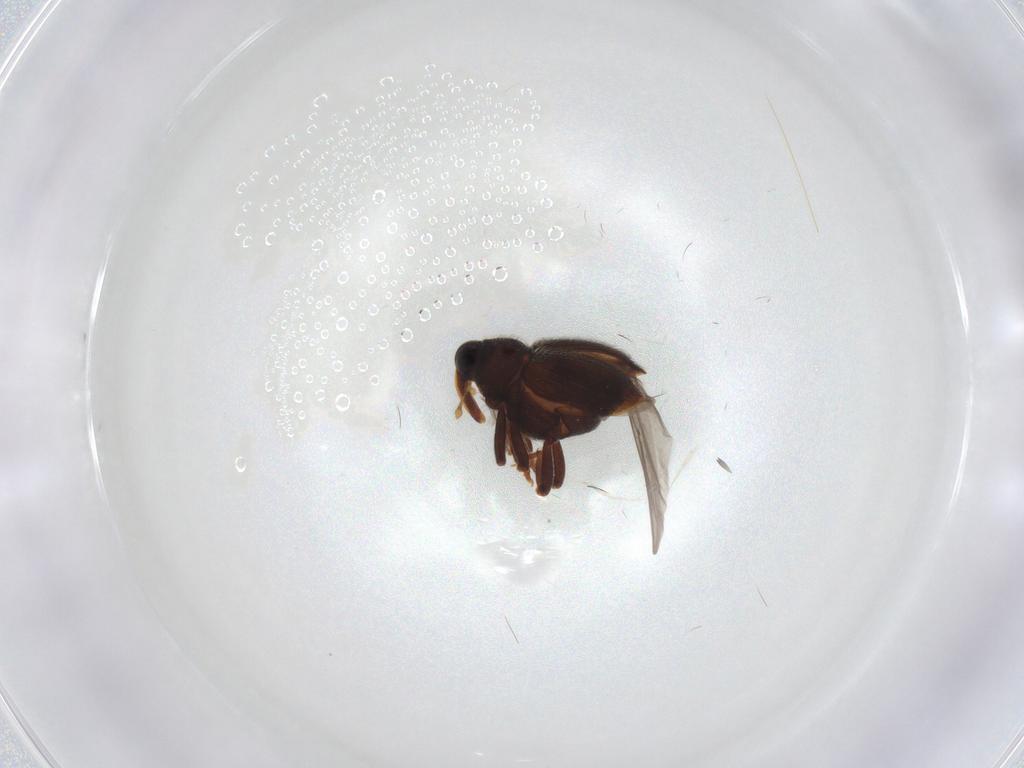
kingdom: Animalia
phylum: Arthropoda
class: Insecta
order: Coleoptera
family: Curculionidae
